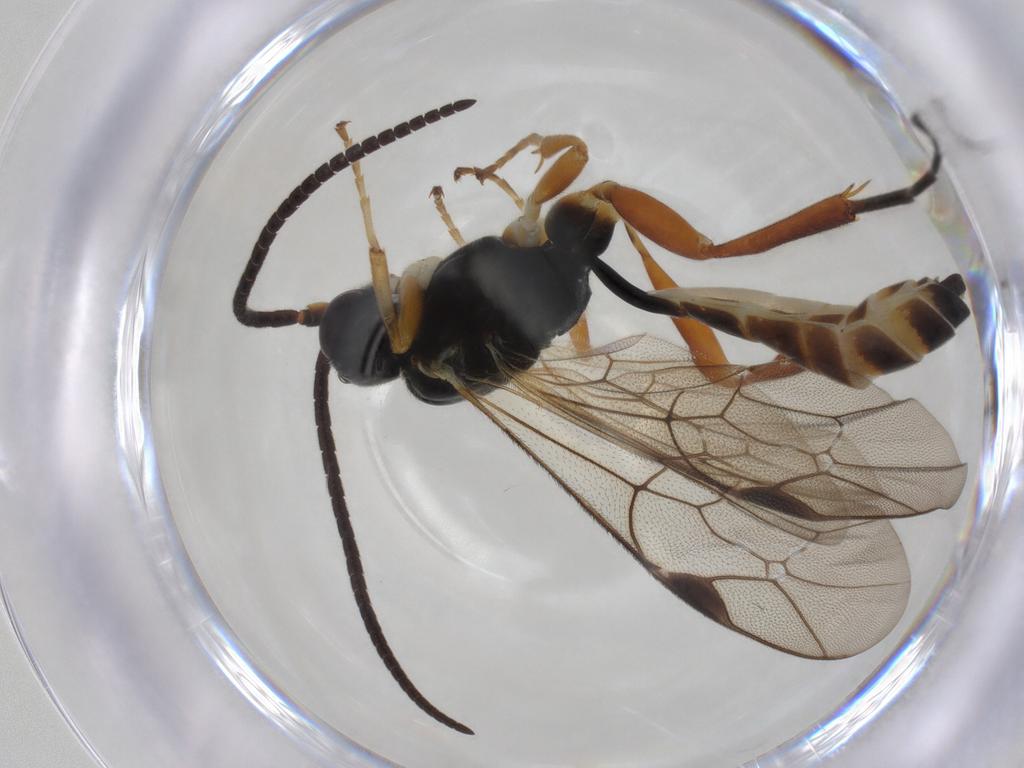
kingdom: Animalia
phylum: Arthropoda
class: Insecta
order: Hymenoptera
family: Ichneumonidae
